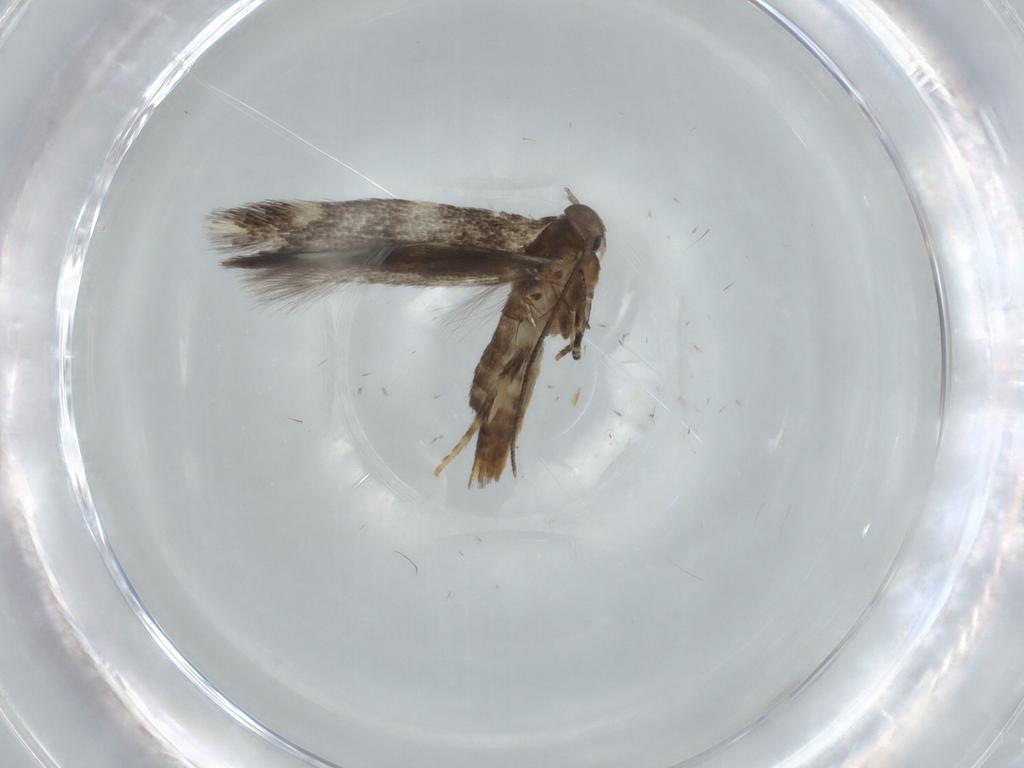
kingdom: Animalia
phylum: Arthropoda
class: Insecta
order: Lepidoptera
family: Elachistidae
